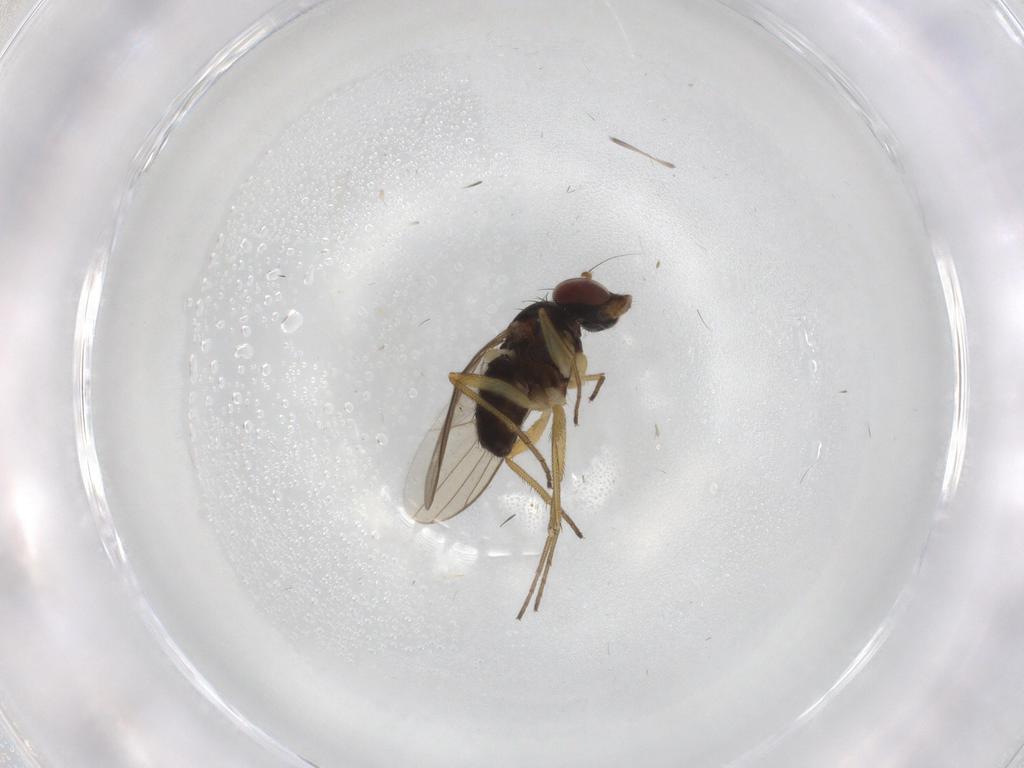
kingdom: Animalia
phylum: Arthropoda
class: Insecta
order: Diptera
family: Dolichopodidae
